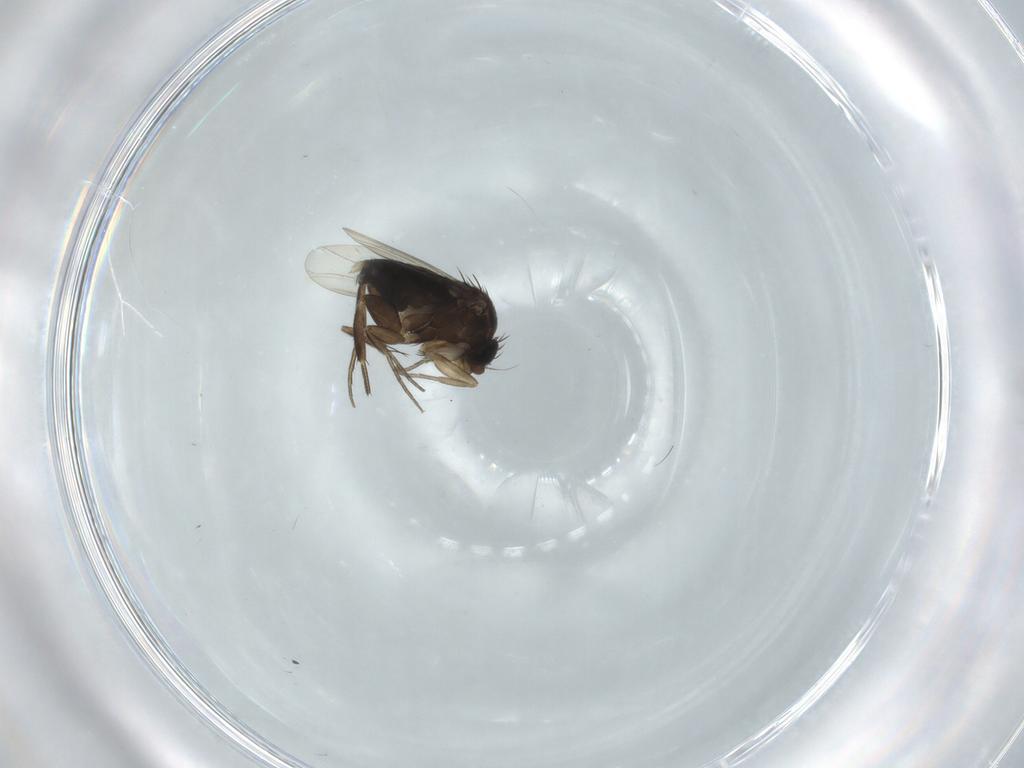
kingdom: Animalia
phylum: Arthropoda
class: Insecta
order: Diptera
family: Phoridae
